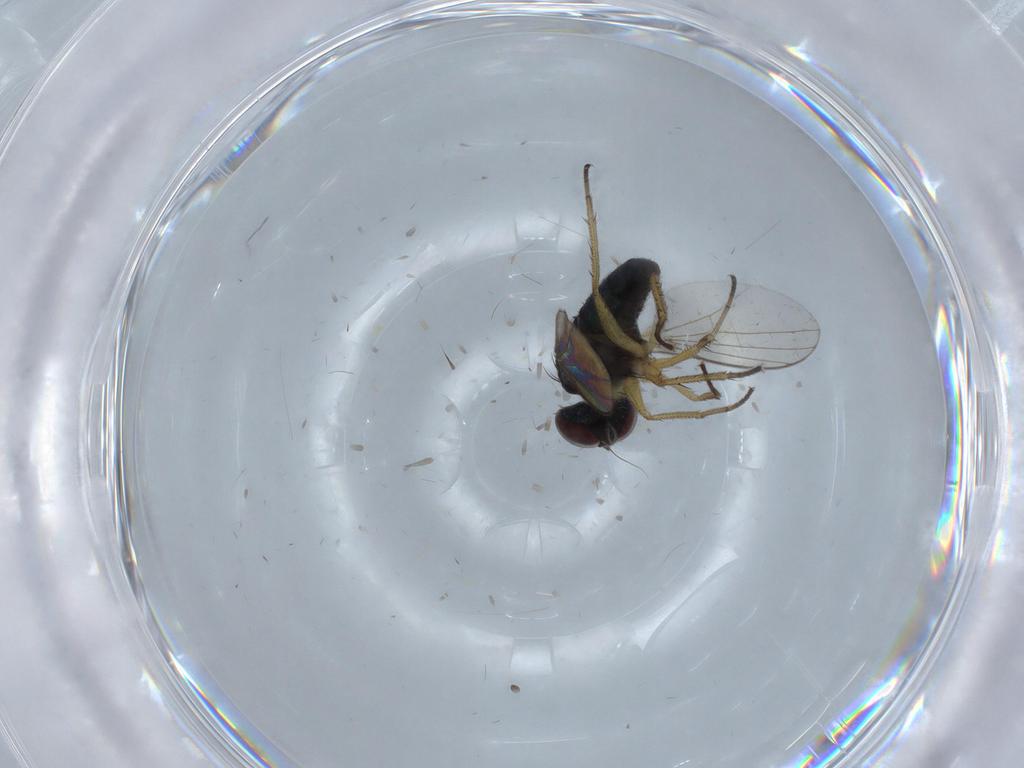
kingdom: Animalia
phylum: Arthropoda
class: Insecta
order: Diptera
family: Dolichopodidae
